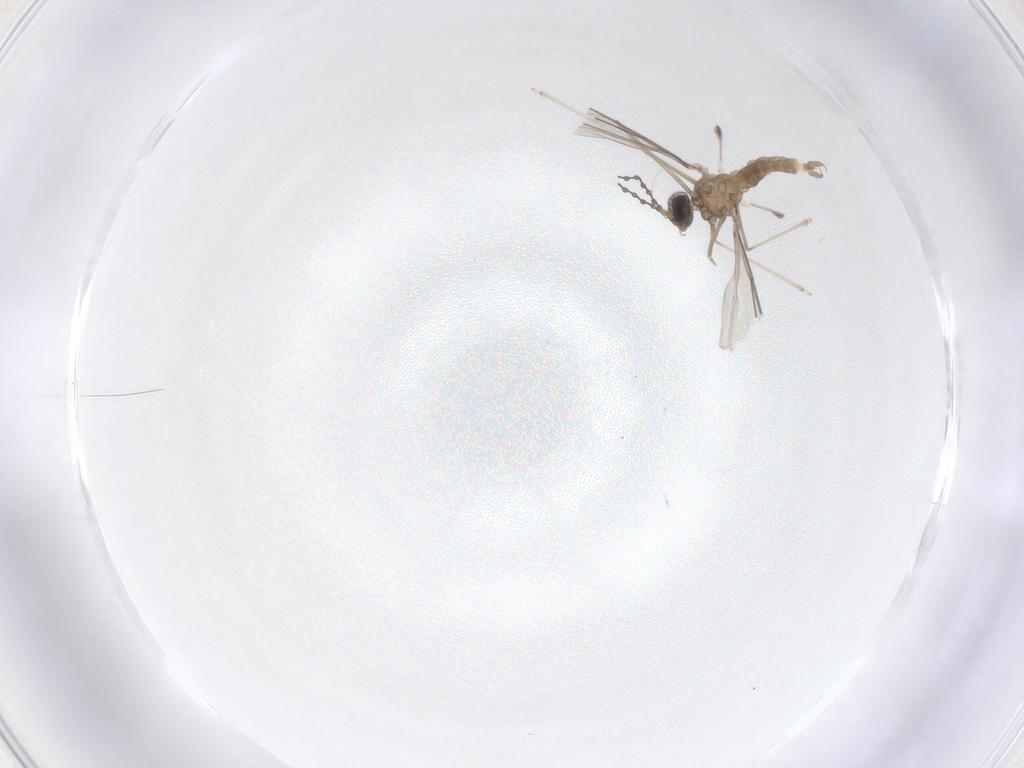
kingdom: Animalia
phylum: Arthropoda
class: Insecta
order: Diptera
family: Cecidomyiidae
